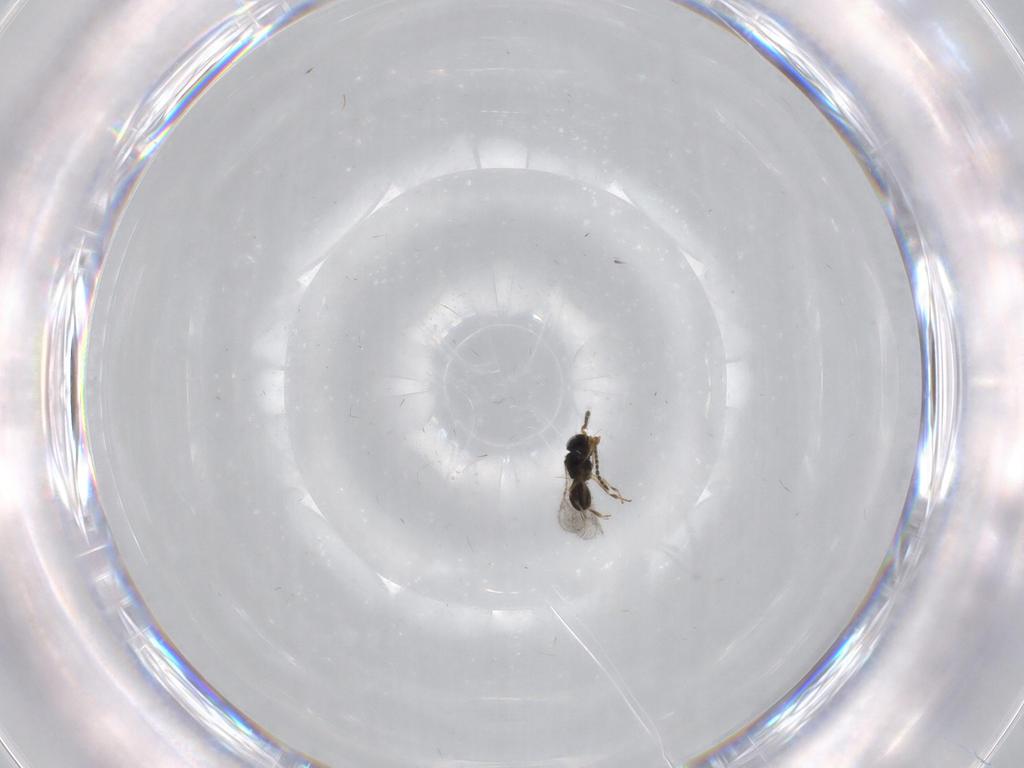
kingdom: Animalia
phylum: Arthropoda
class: Insecta
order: Hymenoptera
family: Scelionidae
